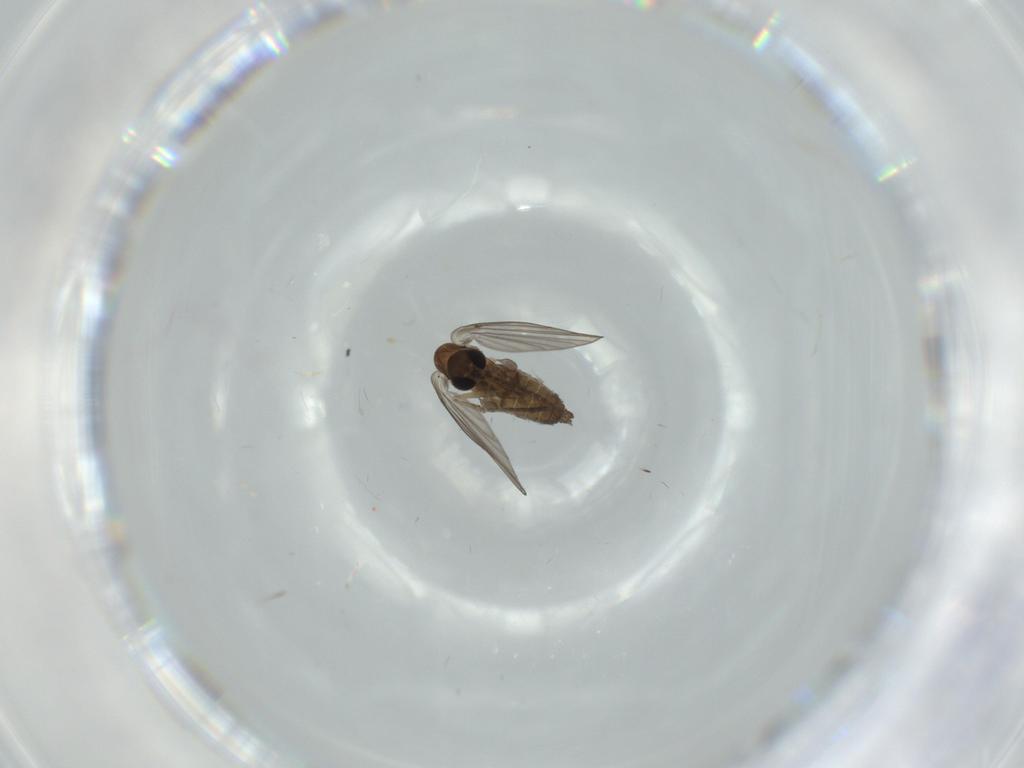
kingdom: Animalia
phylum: Arthropoda
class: Insecta
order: Diptera
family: Psychodidae
